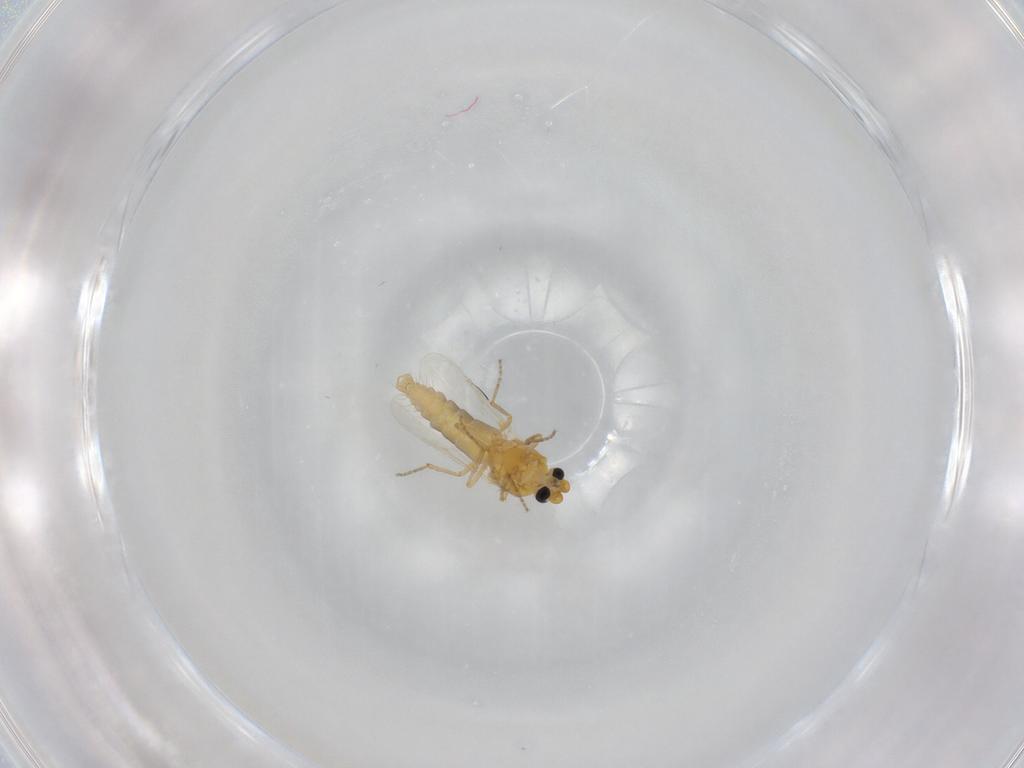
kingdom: Animalia
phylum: Arthropoda
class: Insecta
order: Diptera
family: Ceratopogonidae
